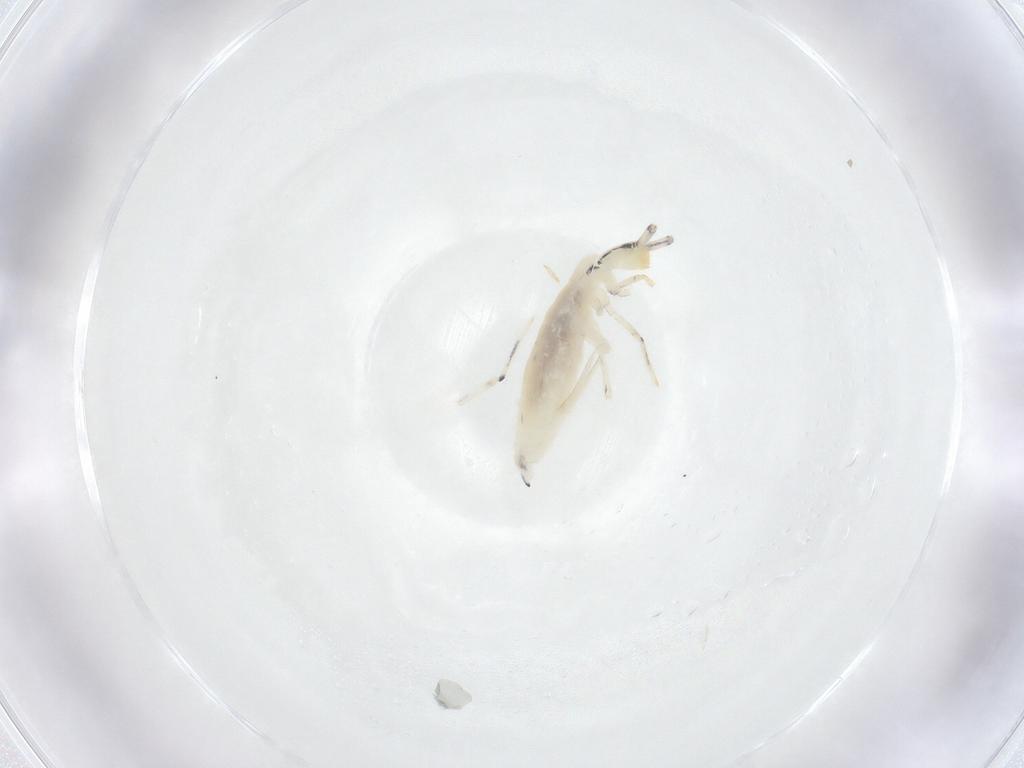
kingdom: Animalia
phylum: Arthropoda
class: Collembola
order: Entomobryomorpha
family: Entomobryidae
